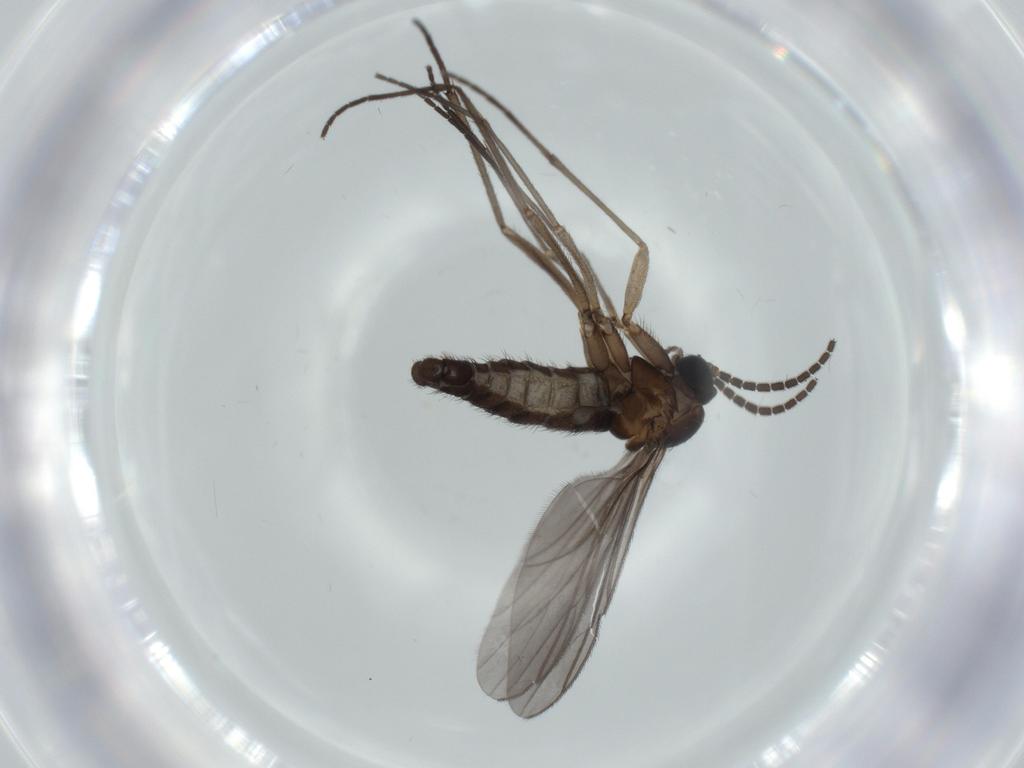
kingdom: Animalia
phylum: Arthropoda
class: Insecta
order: Diptera
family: Sciaridae
